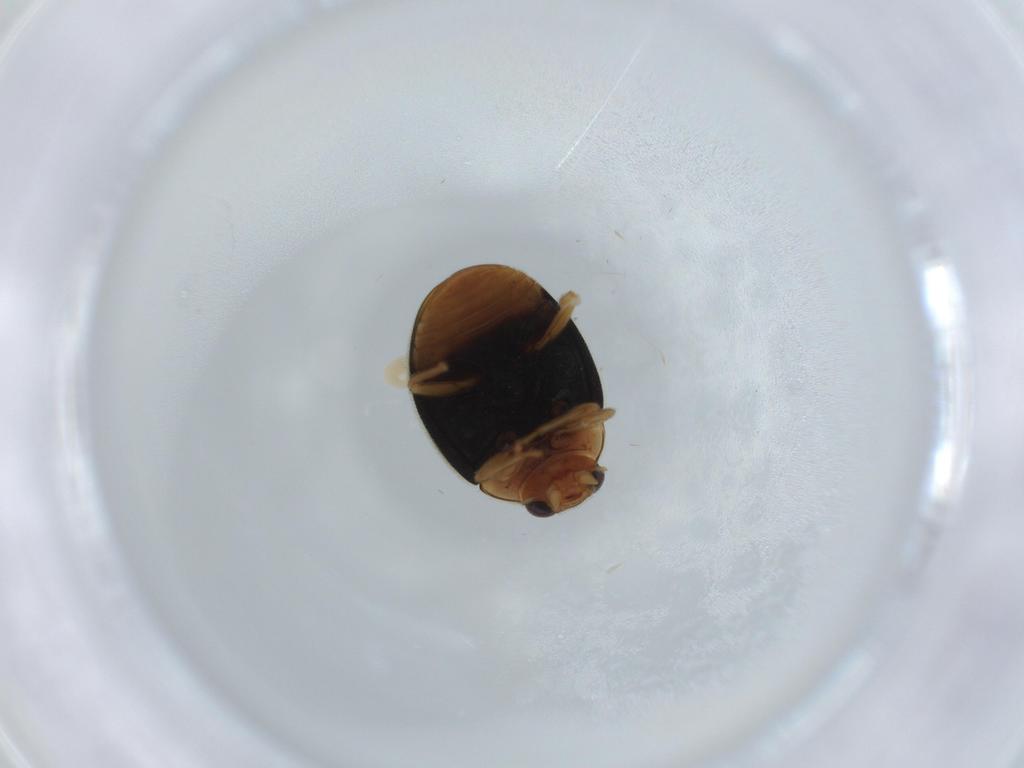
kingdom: Animalia
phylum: Arthropoda
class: Insecta
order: Coleoptera
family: Coccinellidae
